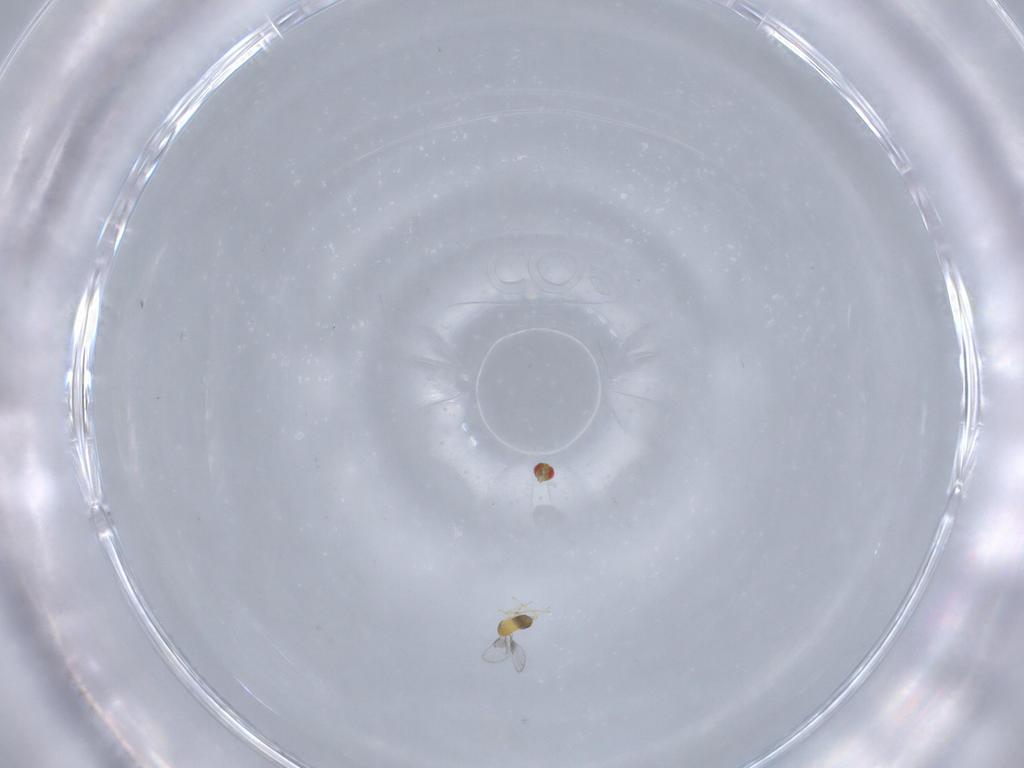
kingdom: Animalia
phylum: Arthropoda
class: Insecta
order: Hymenoptera
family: Trichogrammatidae
